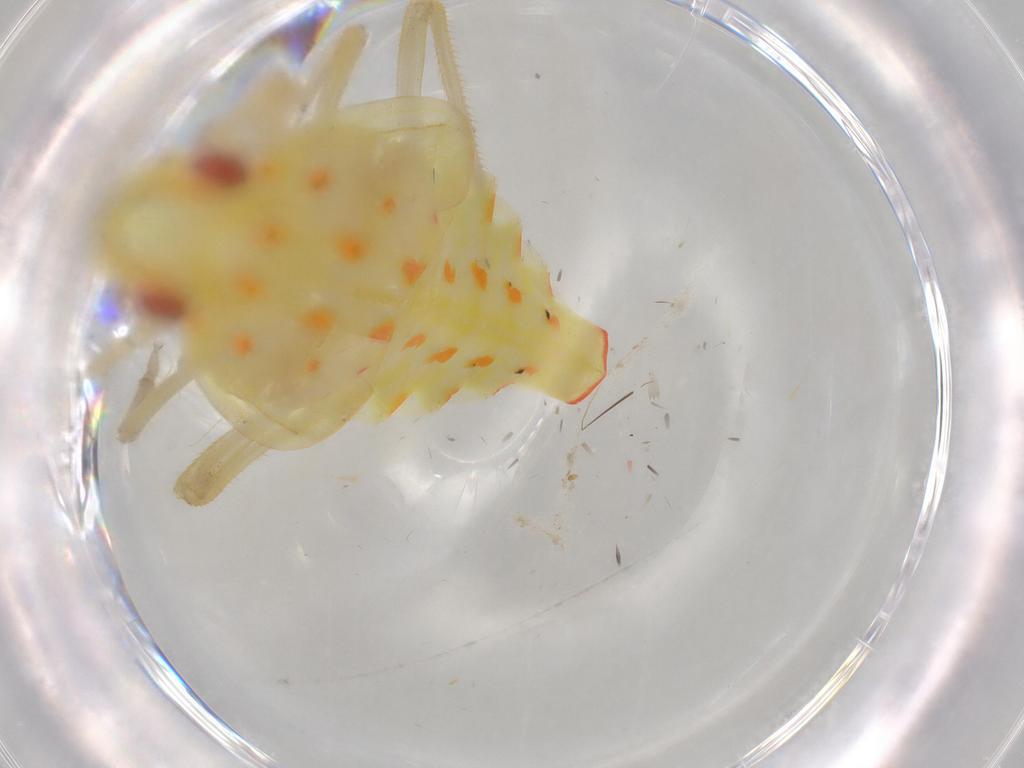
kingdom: Animalia
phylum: Arthropoda
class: Insecta
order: Hemiptera
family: Tropiduchidae
